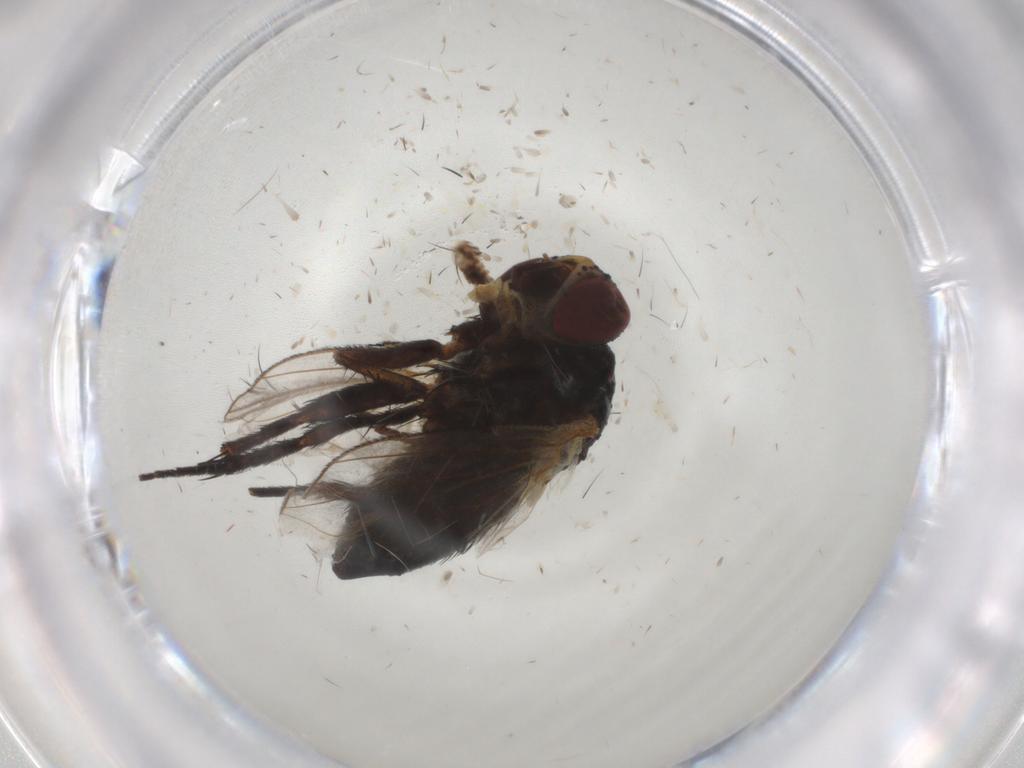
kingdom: Animalia
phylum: Arthropoda
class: Insecta
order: Diptera
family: Tachinidae
